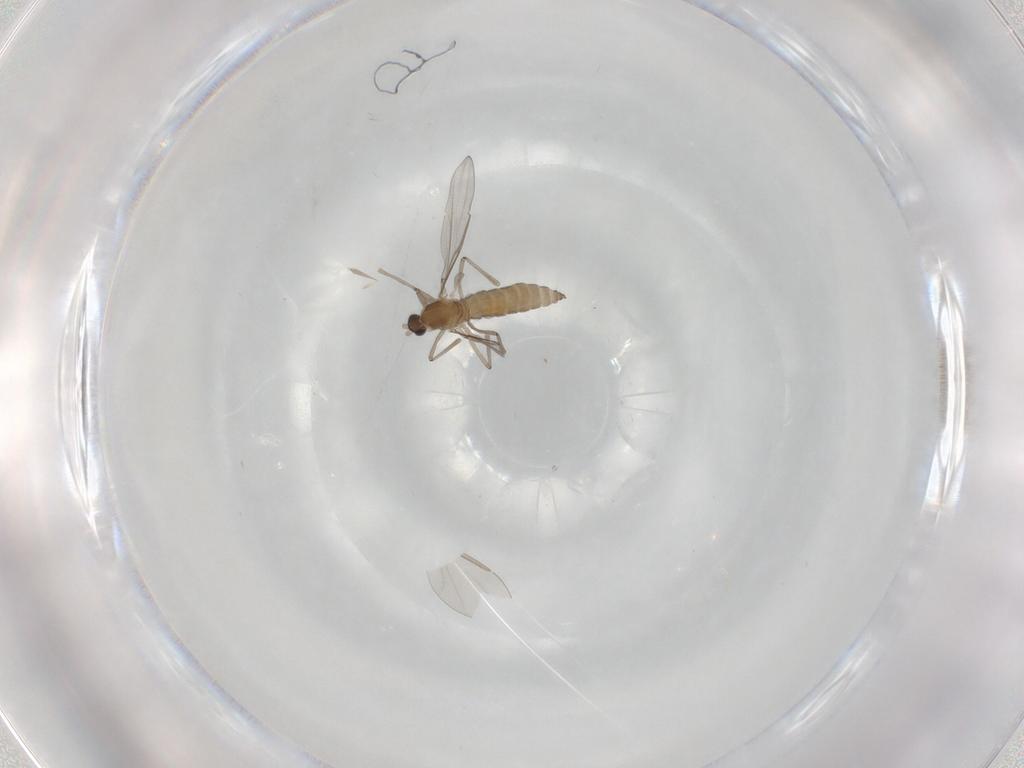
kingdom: Animalia
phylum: Arthropoda
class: Insecta
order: Diptera
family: Cecidomyiidae
